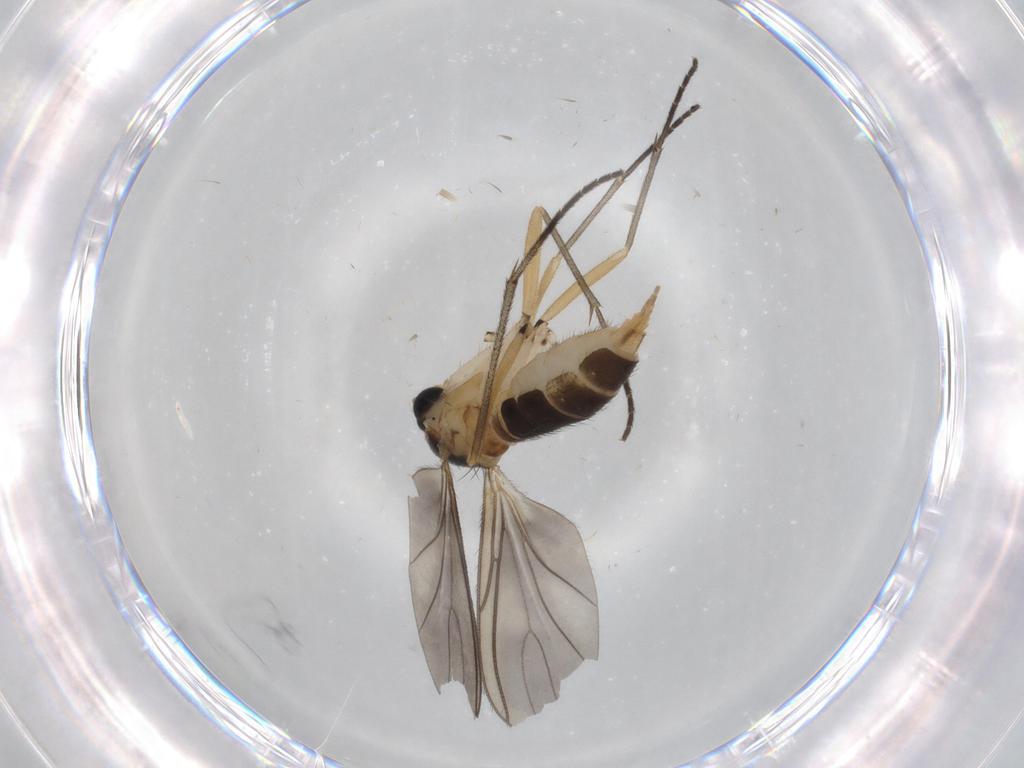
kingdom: Animalia
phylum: Arthropoda
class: Insecta
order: Diptera
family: Sciaridae
